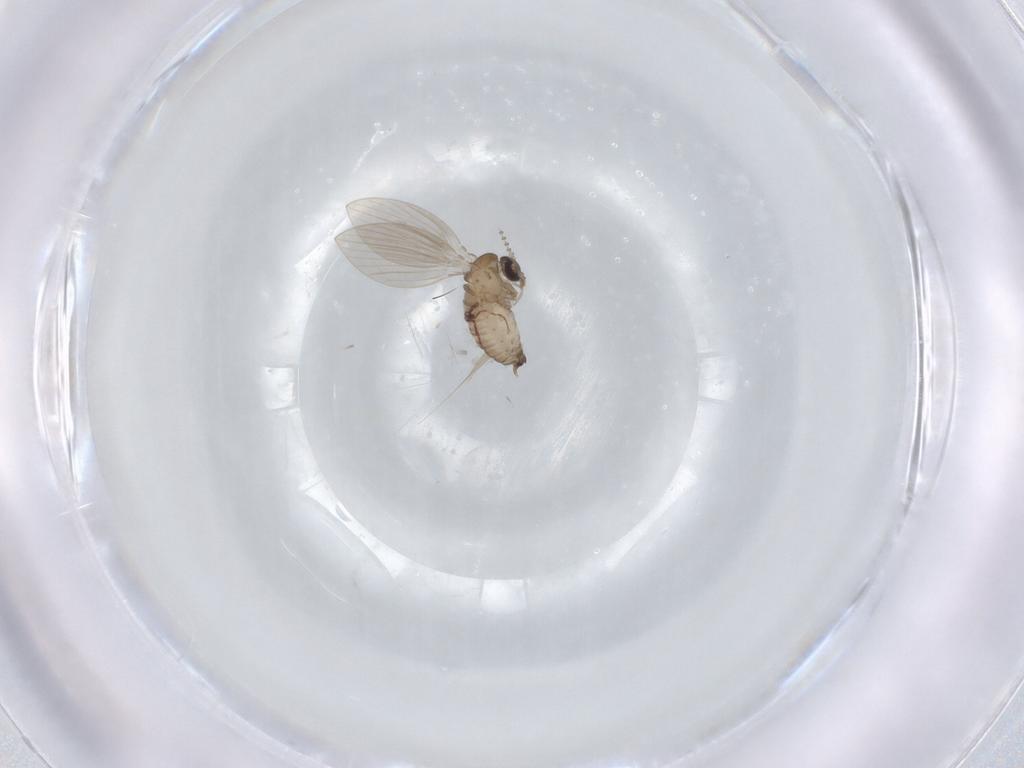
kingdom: Animalia
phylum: Arthropoda
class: Insecta
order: Diptera
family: Psychodidae
